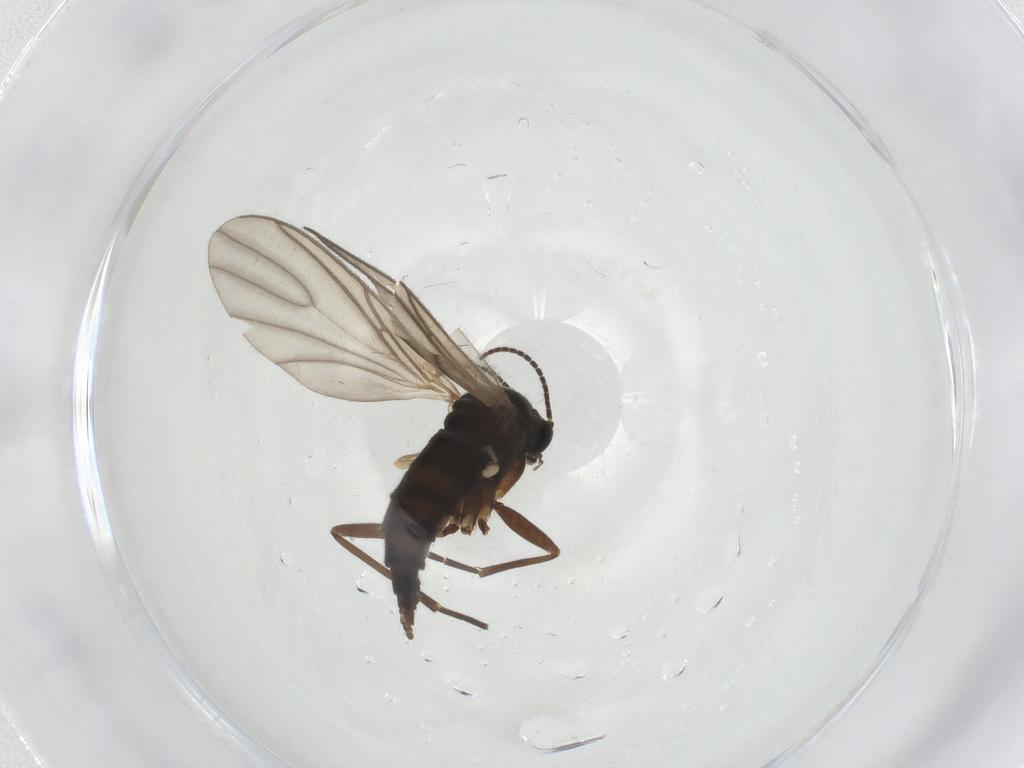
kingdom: Animalia
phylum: Arthropoda
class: Insecta
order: Diptera
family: Sciaridae
